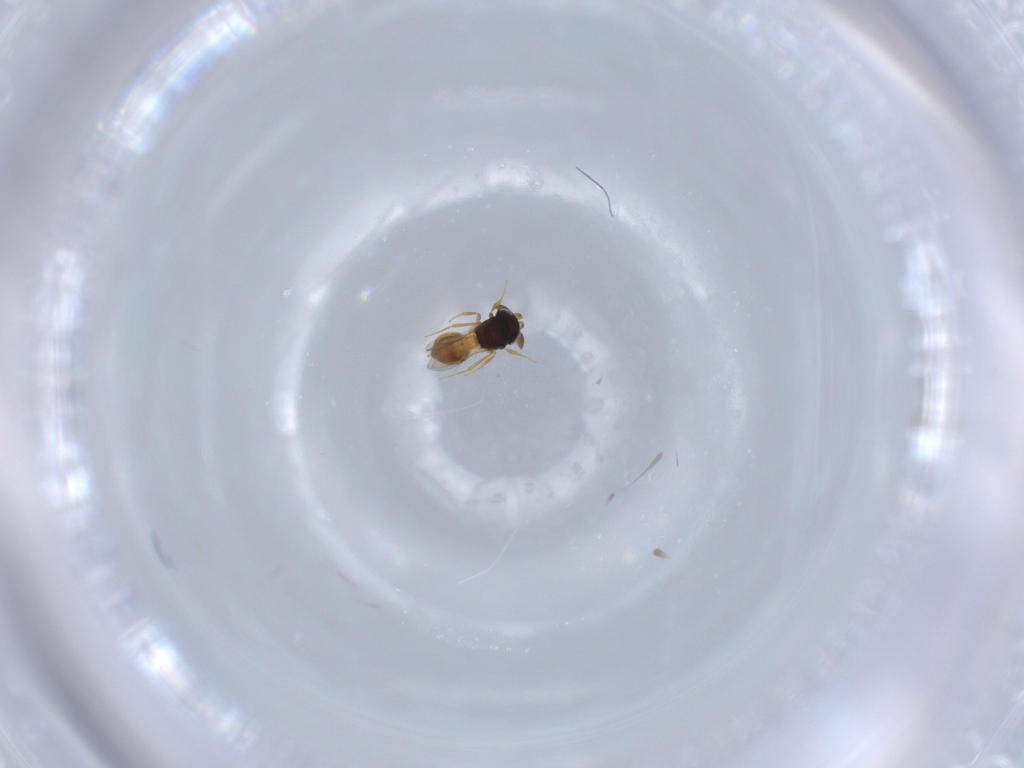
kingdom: Animalia
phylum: Arthropoda
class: Insecta
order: Hymenoptera
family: Scelionidae
